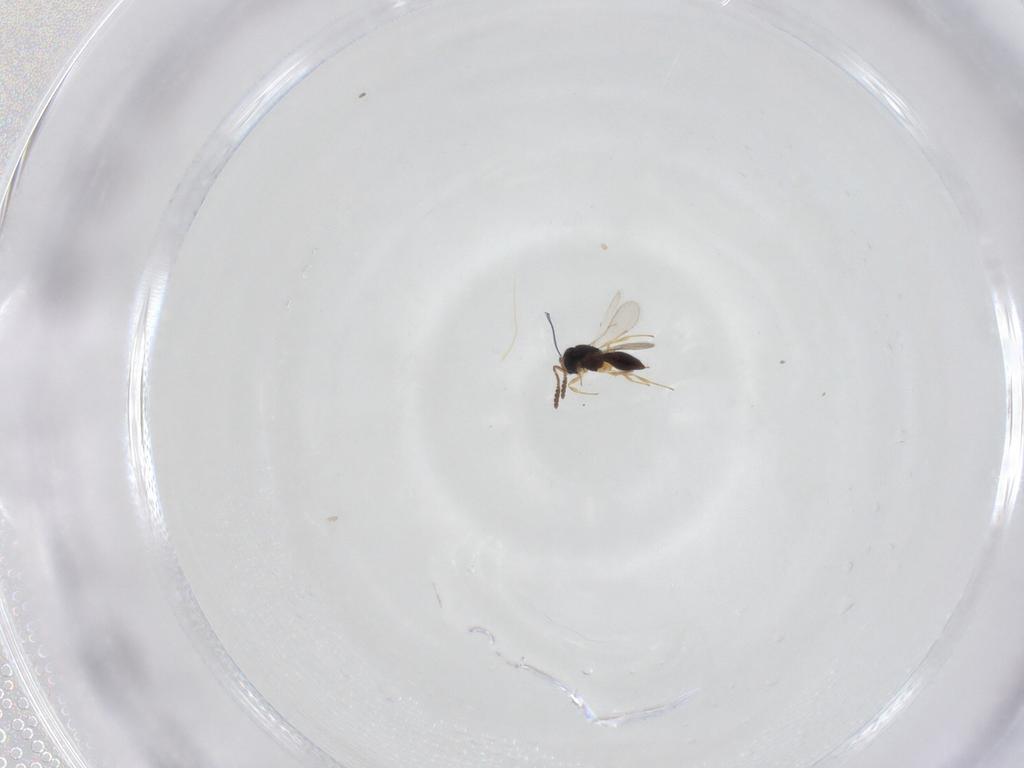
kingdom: Animalia
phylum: Arthropoda
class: Insecta
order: Hymenoptera
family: Scelionidae
